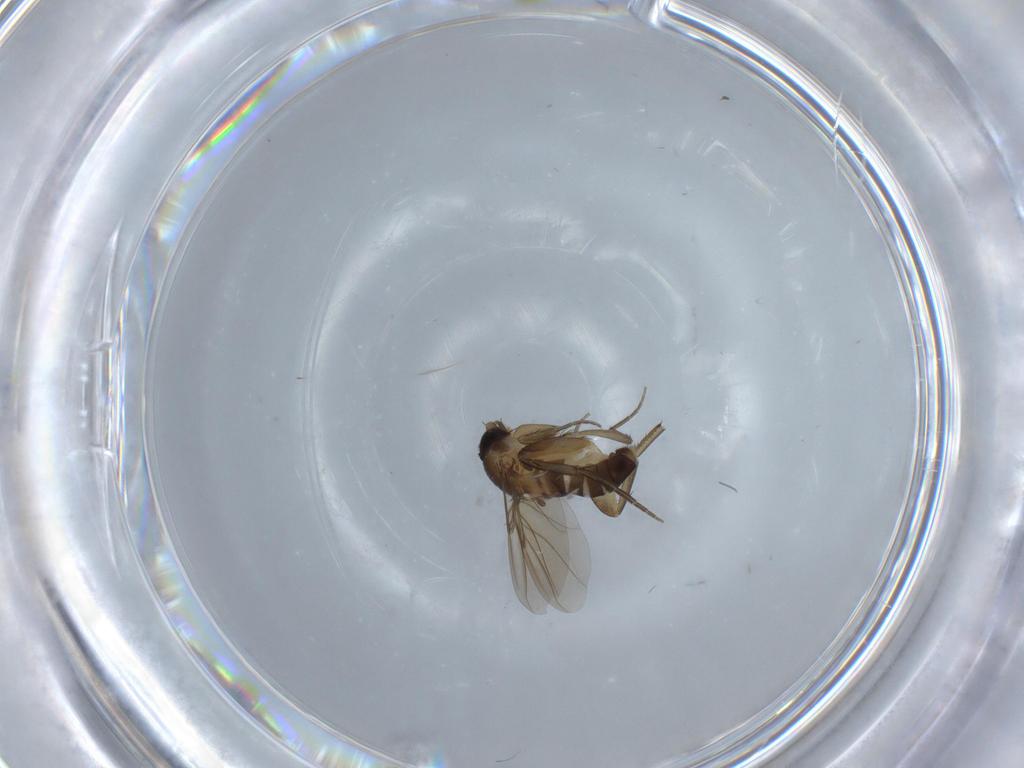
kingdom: Animalia
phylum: Arthropoda
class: Insecta
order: Diptera
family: Phoridae
